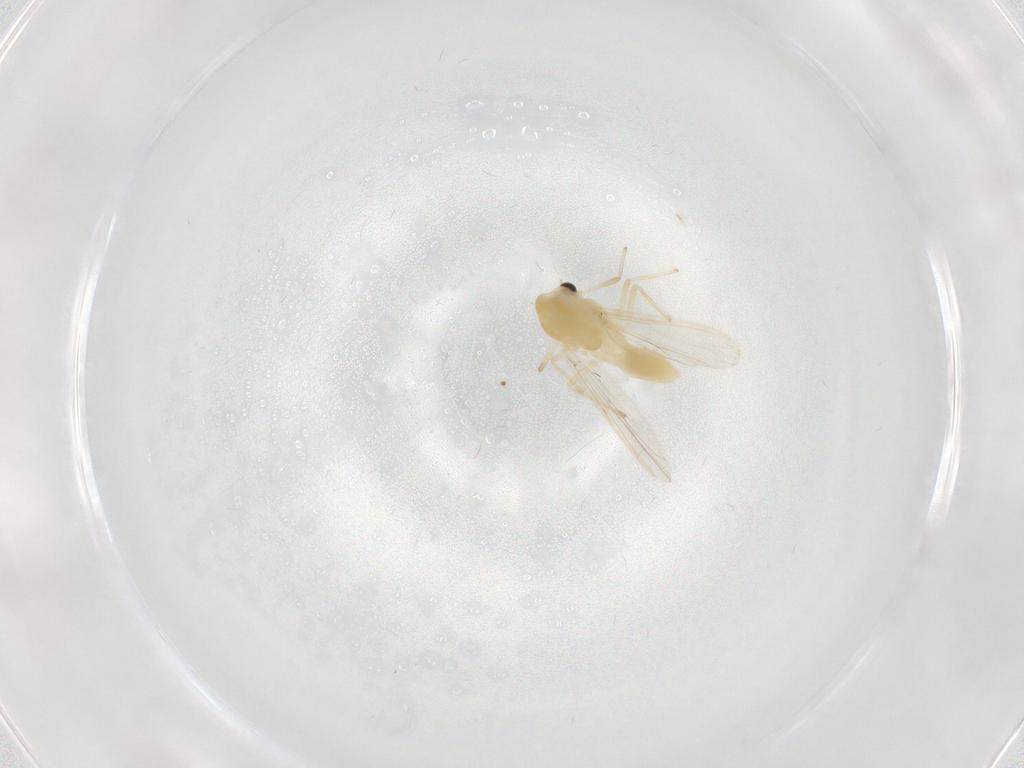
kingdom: Animalia
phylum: Arthropoda
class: Insecta
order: Diptera
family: Chironomidae
